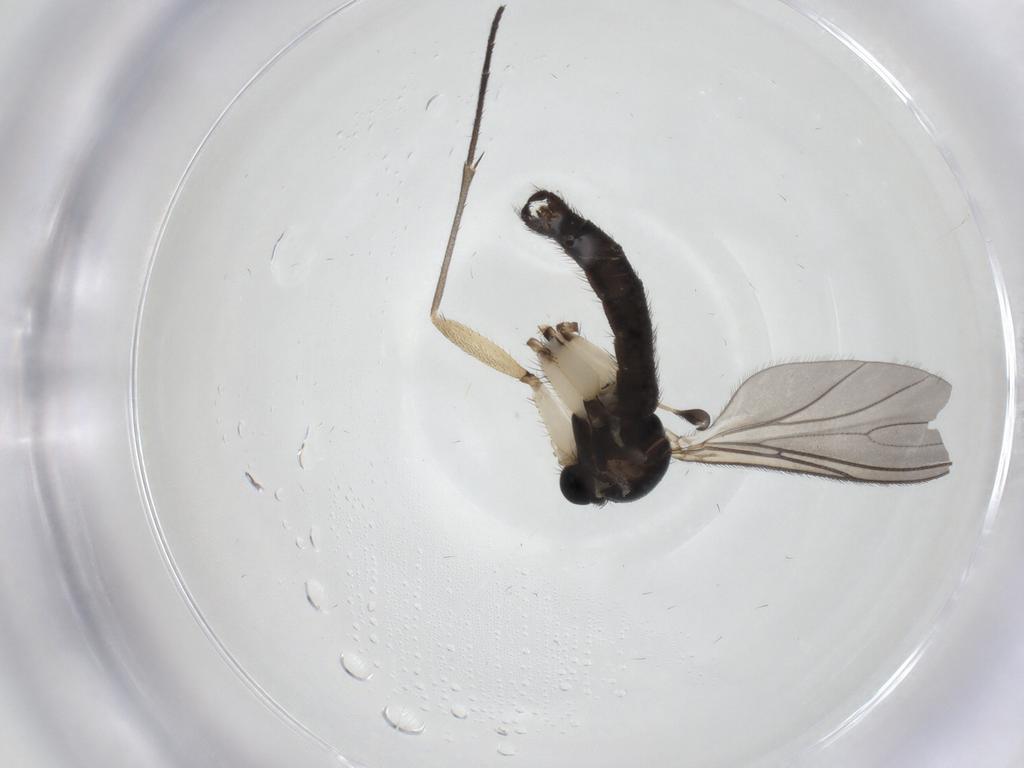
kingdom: Animalia
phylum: Arthropoda
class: Insecta
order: Diptera
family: Sciaridae
